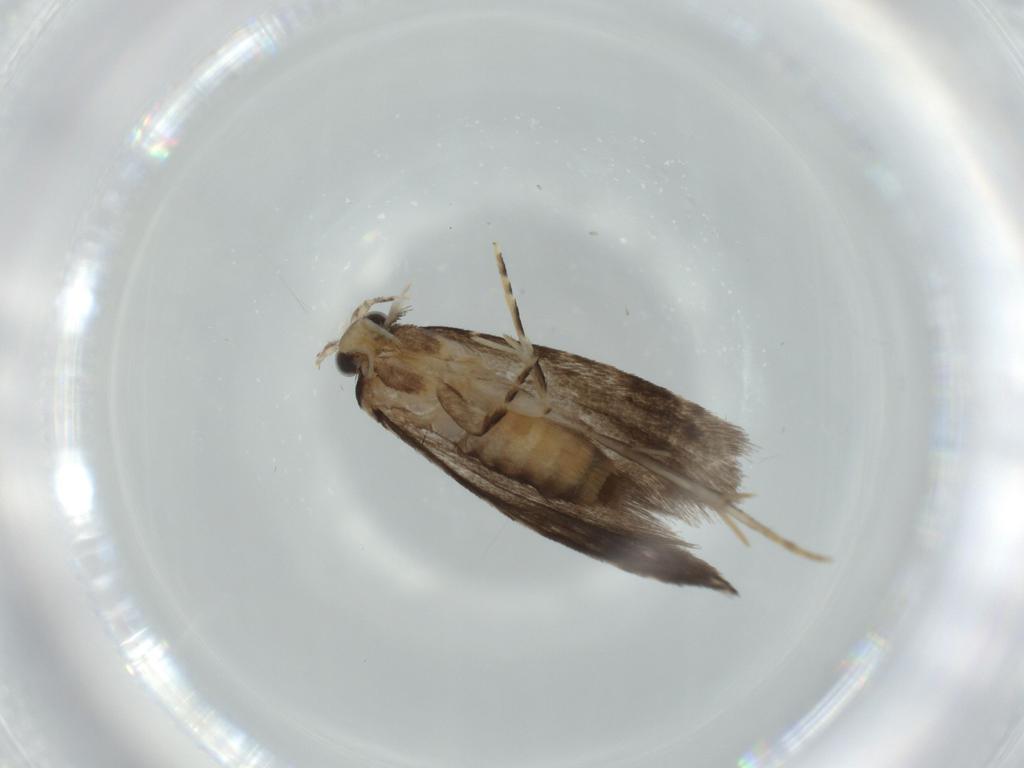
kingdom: Animalia
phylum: Arthropoda
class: Insecta
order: Lepidoptera
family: Tineidae
